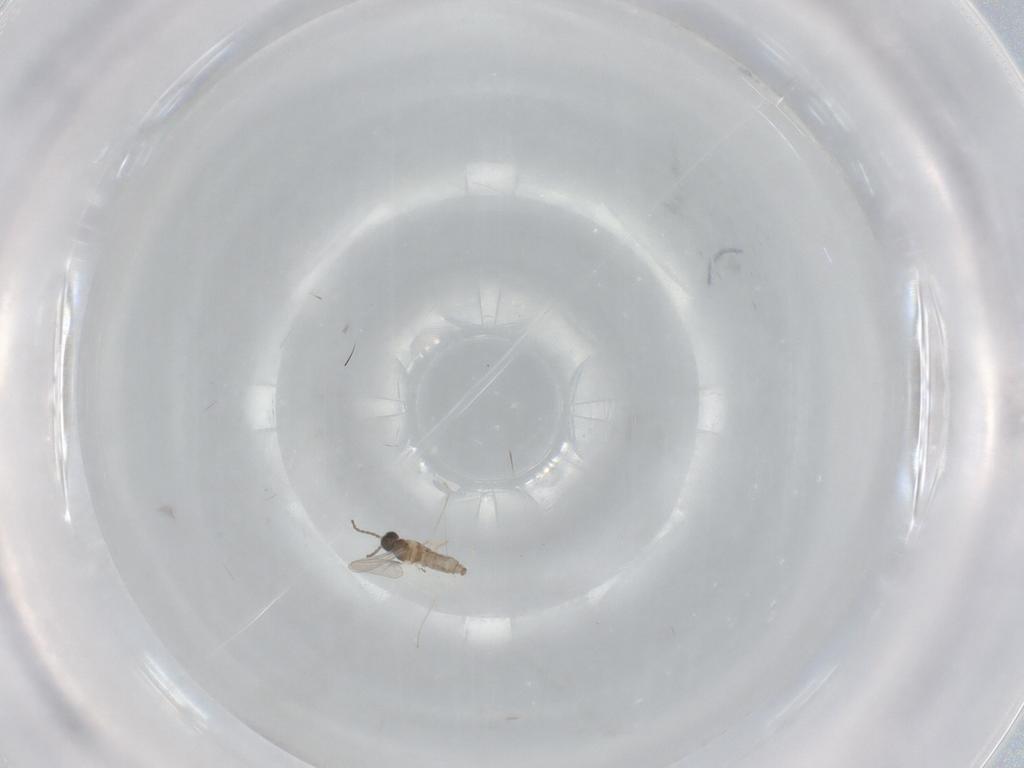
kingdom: Animalia
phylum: Arthropoda
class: Insecta
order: Diptera
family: Cecidomyiidae
